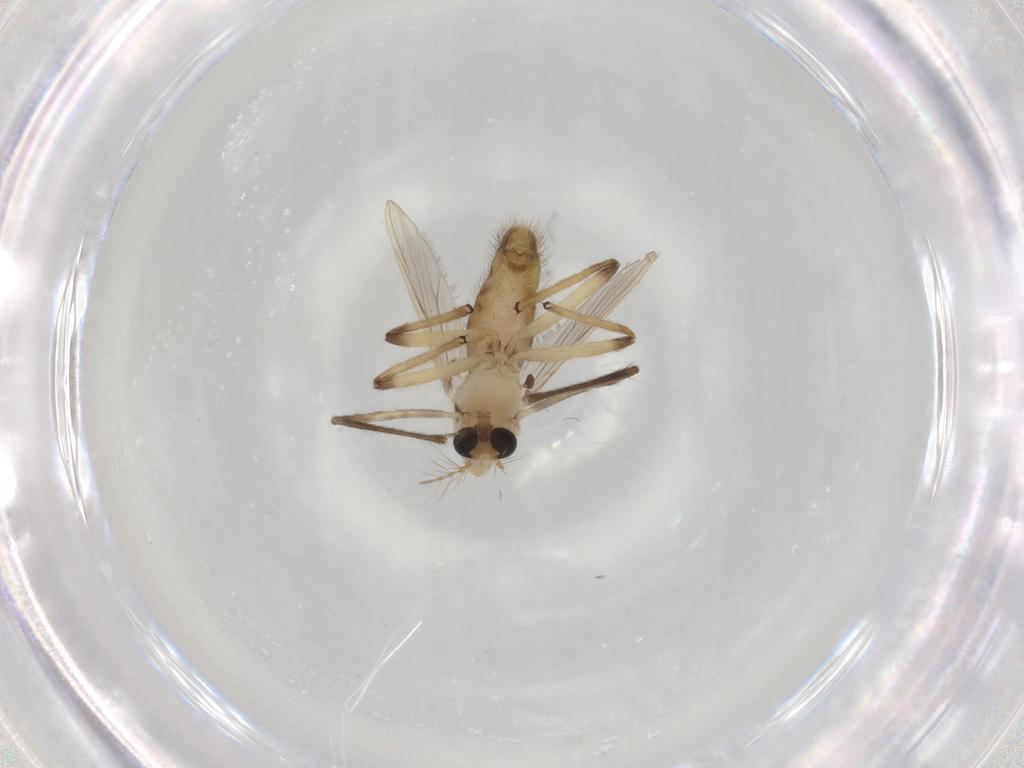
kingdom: Animalia
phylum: Arthropoda
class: Insecta
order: Diptera
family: Chironomidae
